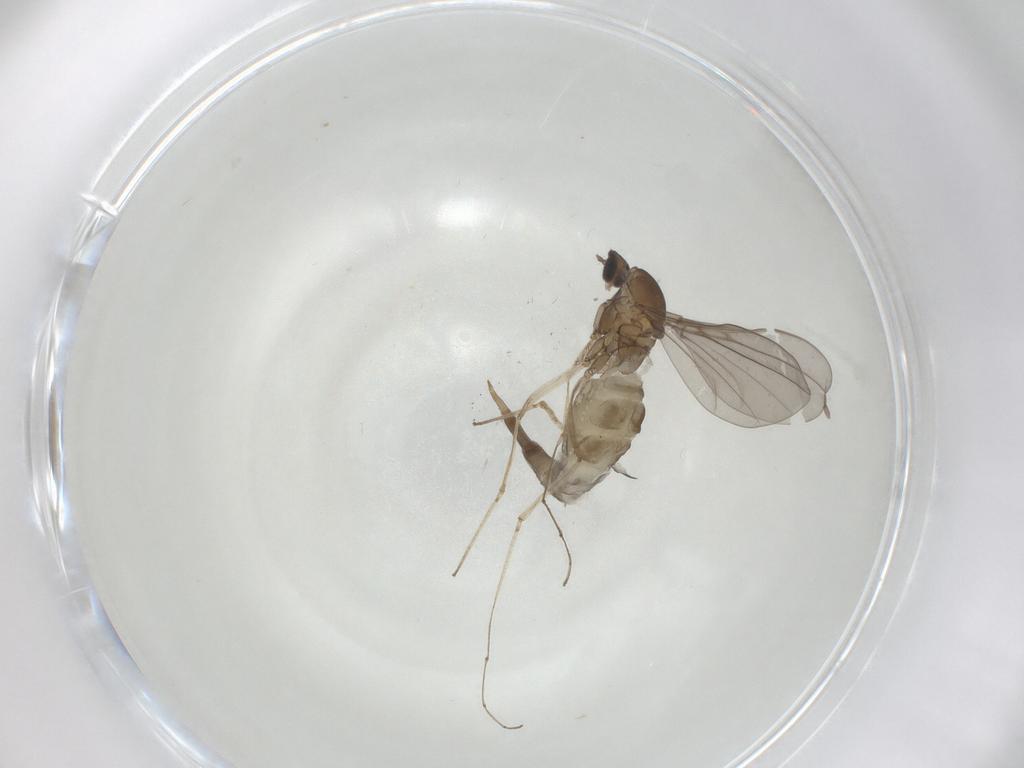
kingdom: Animalia
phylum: Arthropoda
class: Insecta
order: Diptera
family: Cecidomyiidae
